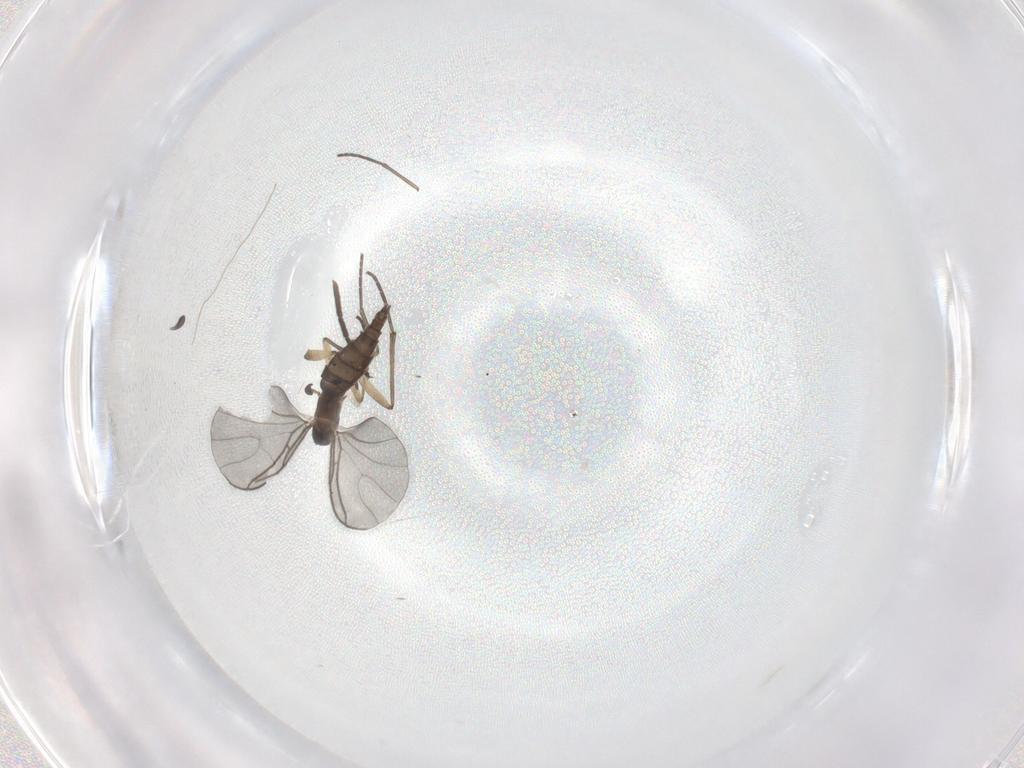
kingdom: Animalia
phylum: Arthropoda
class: Insecta
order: Diptera
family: Sciaridae
